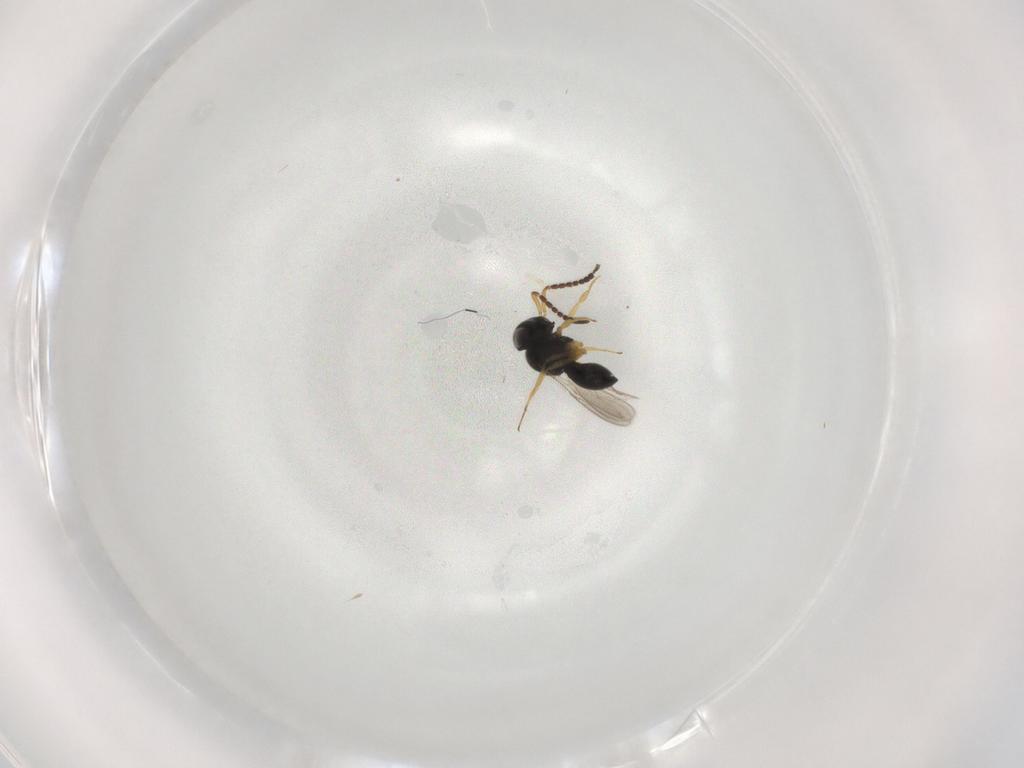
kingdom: Animalia
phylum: Arthropoda
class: Insecta
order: Hymenoptera
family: Scelionidae
